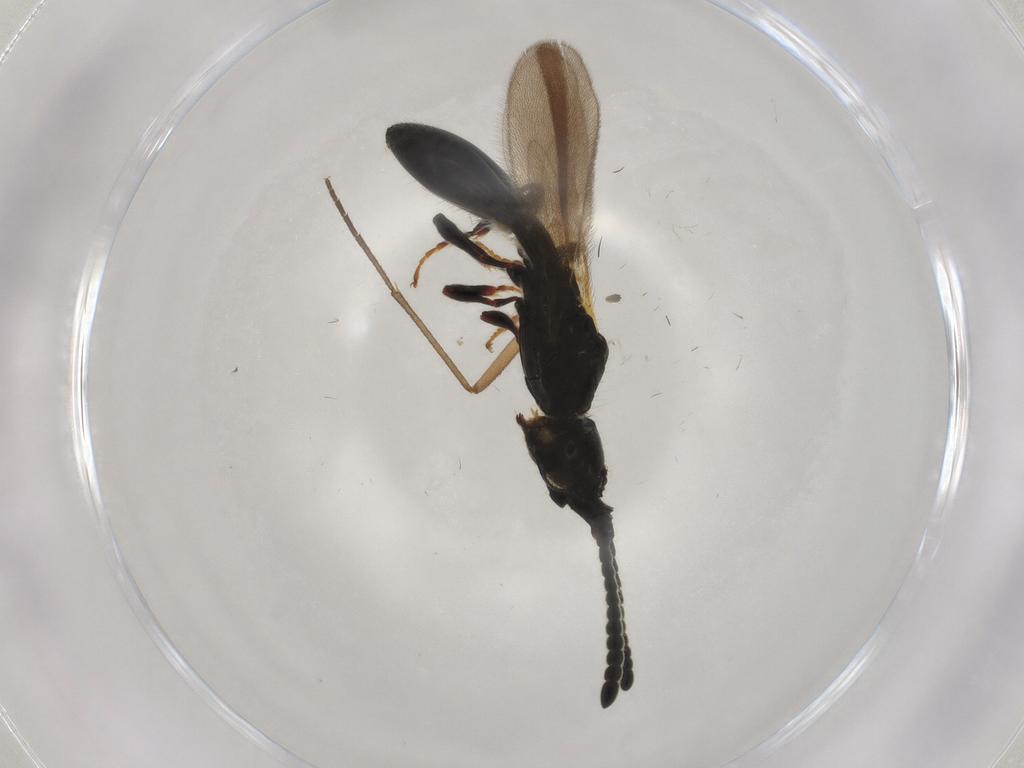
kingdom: Animalia
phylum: Arthropoda
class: Insecta
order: Hymenoptera
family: Diapriidae
